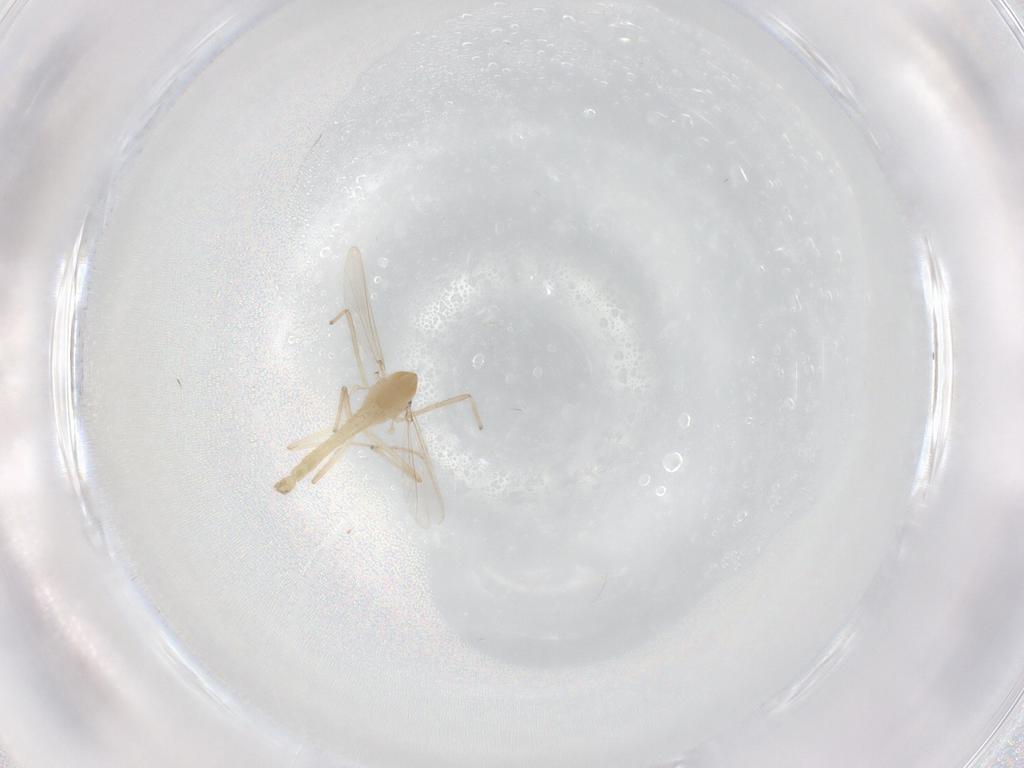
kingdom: Animalia
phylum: Arthropoda
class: Insecta
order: Diptera
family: Chironomidae
